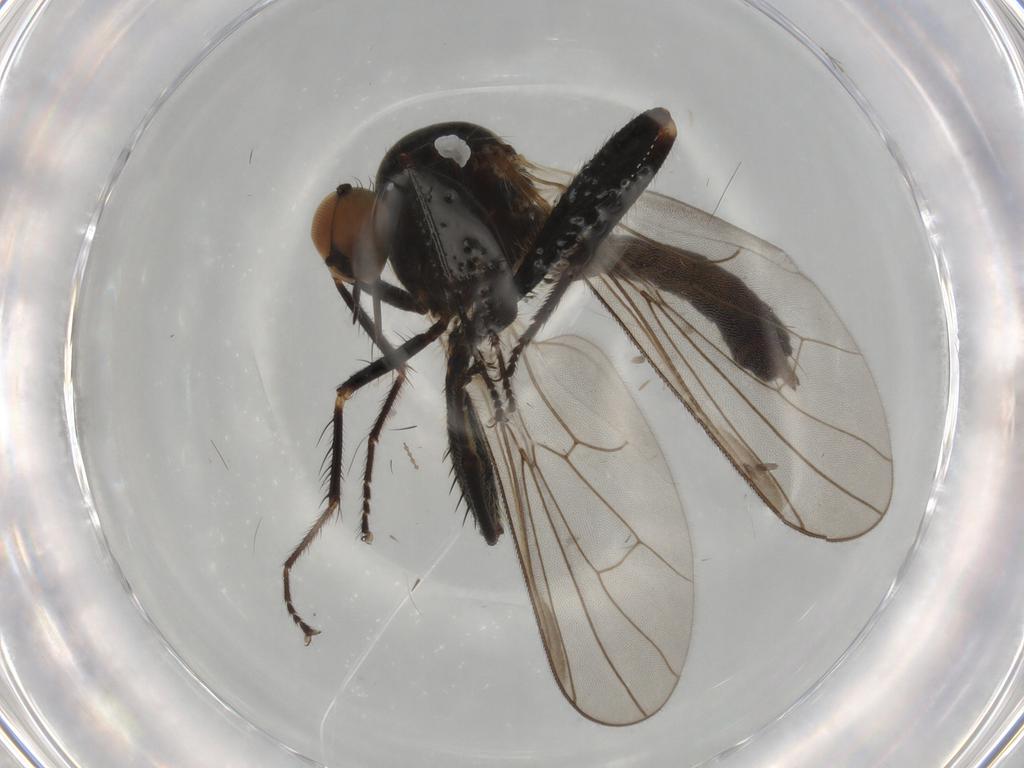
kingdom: Animalia
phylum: Arthropoda
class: Insecta
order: Diptera
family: Hybotidae
